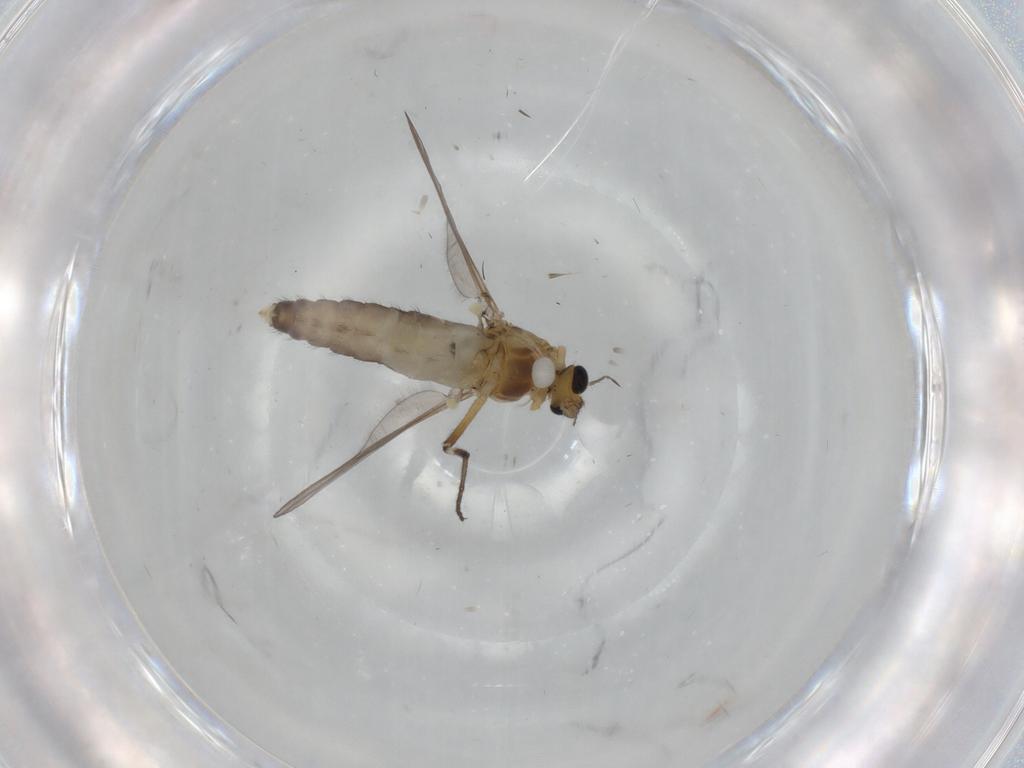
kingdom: Animalia
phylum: Arthropoda
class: Insecta
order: Diptera
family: Chironomidae
